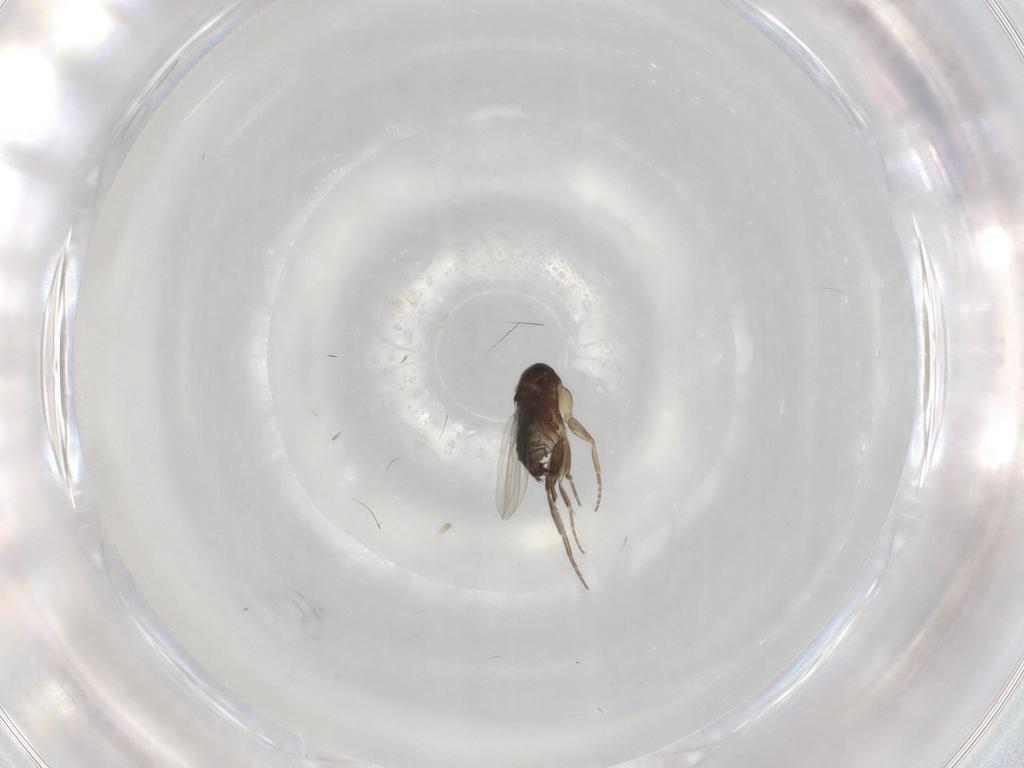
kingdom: Animalia
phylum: Arthropoda
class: Insecta
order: Diptera
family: Phoridae
